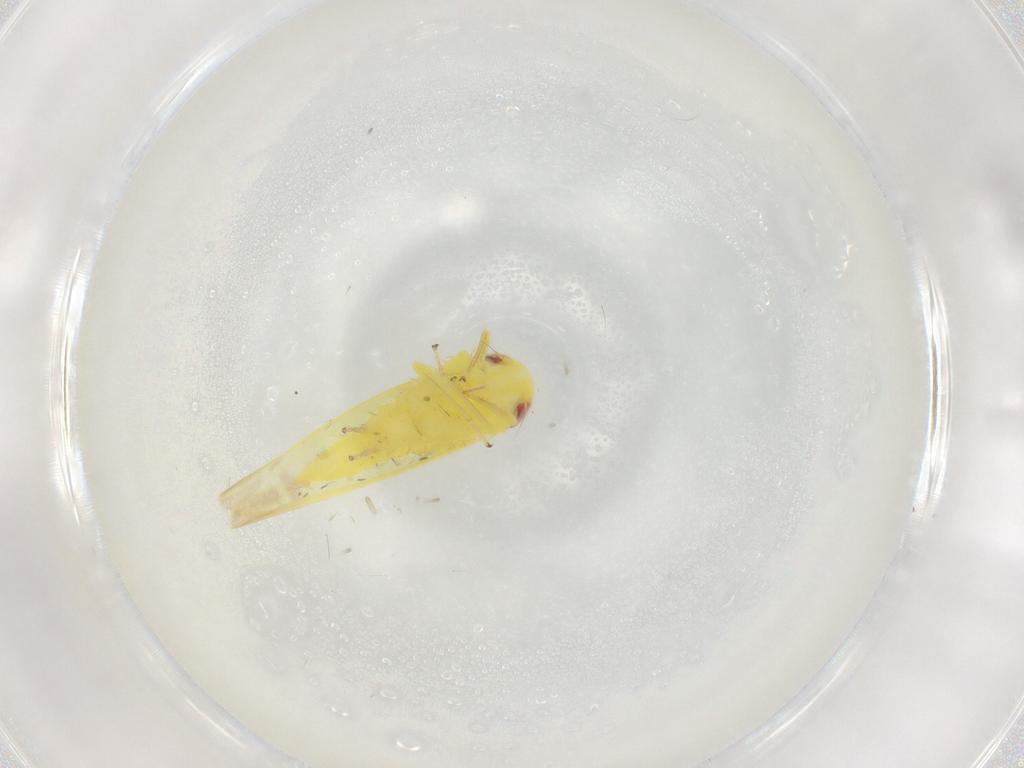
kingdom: Animalia
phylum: Arthropoda
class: Insecta
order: Hemiptera
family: Cicadellidae
